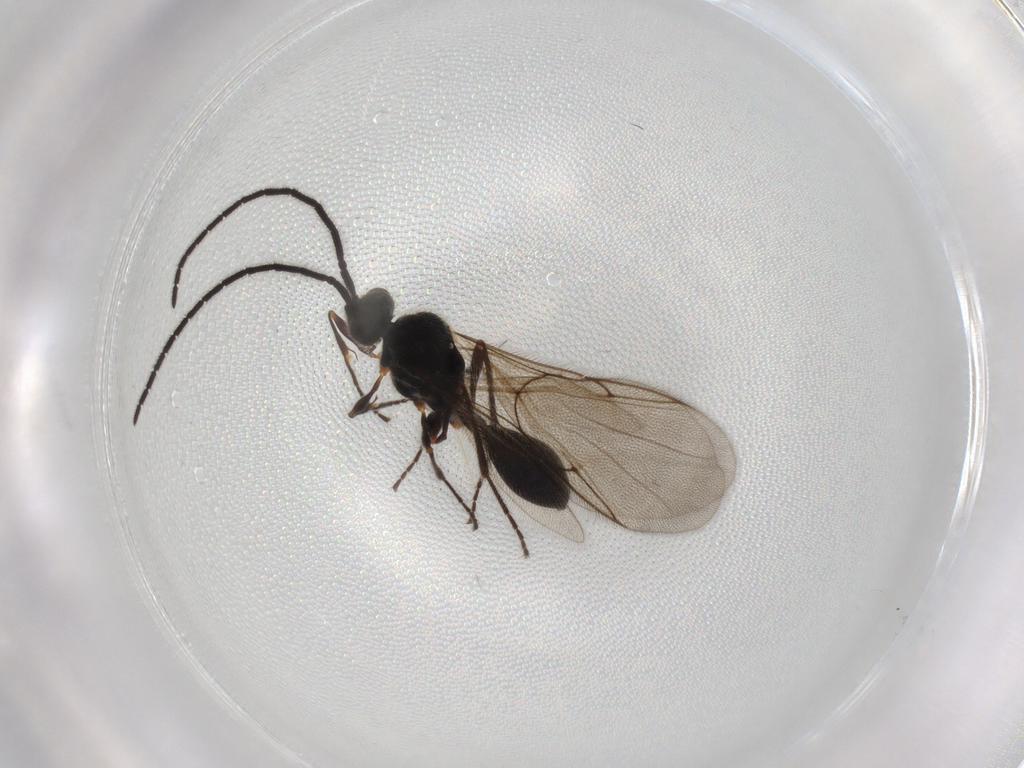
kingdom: Animalia
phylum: Arthropoda
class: Insecta
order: Hymenoptera
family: Diapriidae
